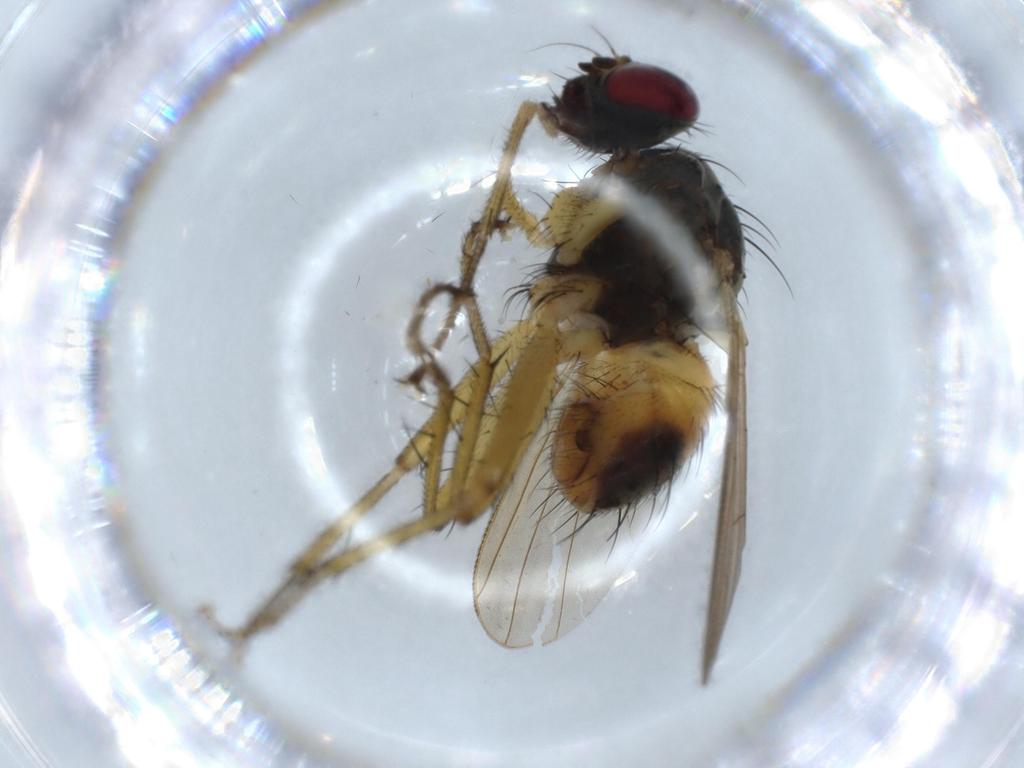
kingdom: Animalia
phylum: Arthropoda
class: Insecta
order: Diptera
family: Muscidae
